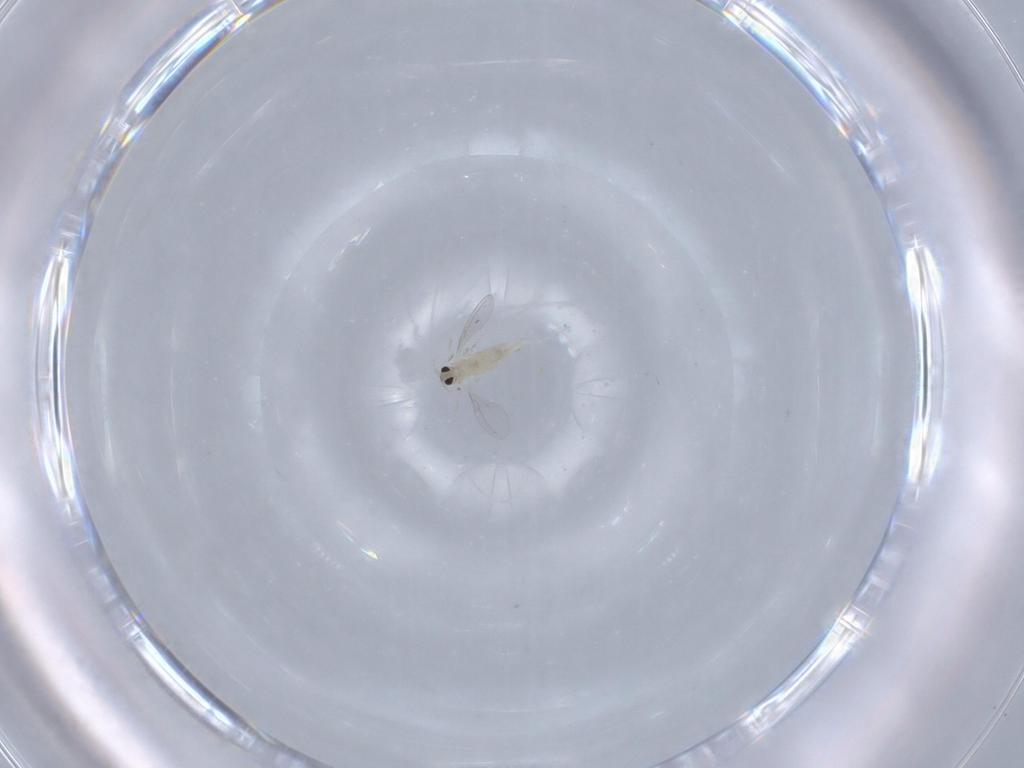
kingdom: Animalia
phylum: Arthropoda
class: Insecta
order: Diptera
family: Cecidomyiidae
